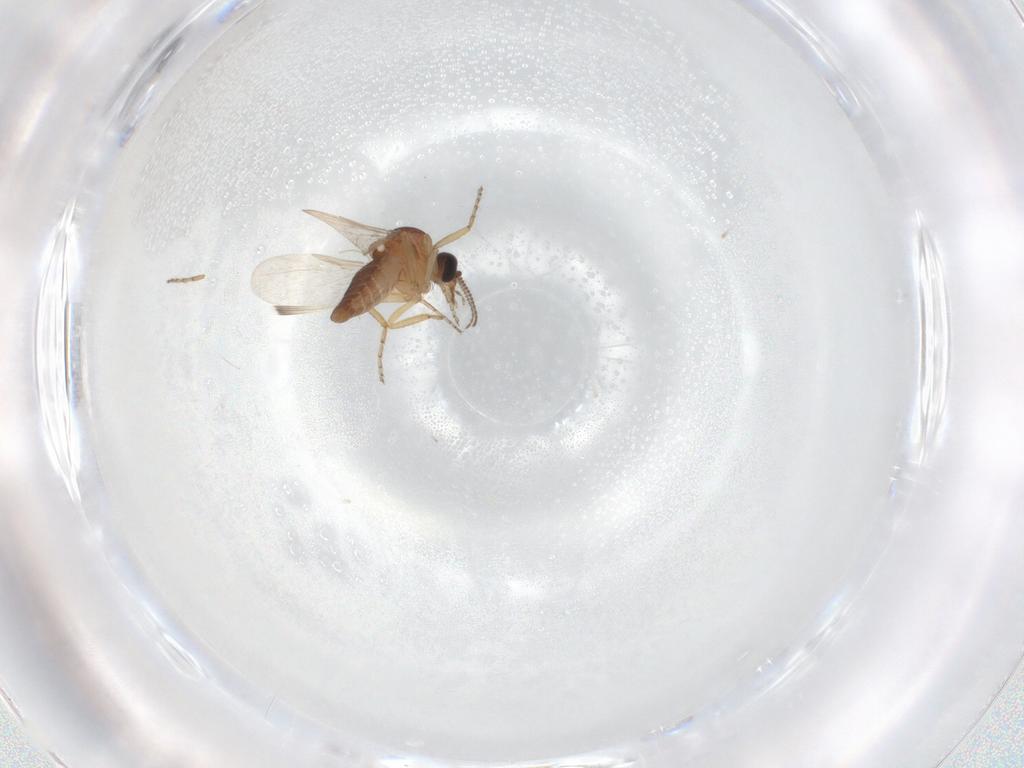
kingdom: Animalia
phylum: Arthropoda
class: Insecta
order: Diptera
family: Ceratopogonidae
